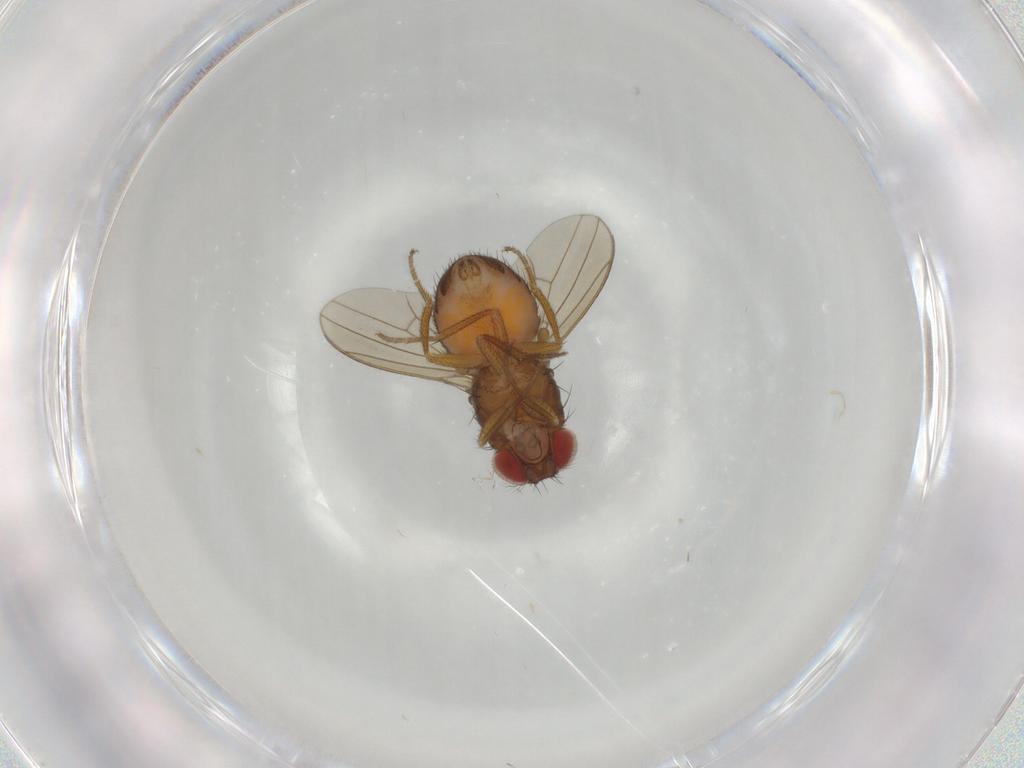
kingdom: Animalia
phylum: Arthropoda
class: Insecta
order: Diptera
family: Drosophilidae
